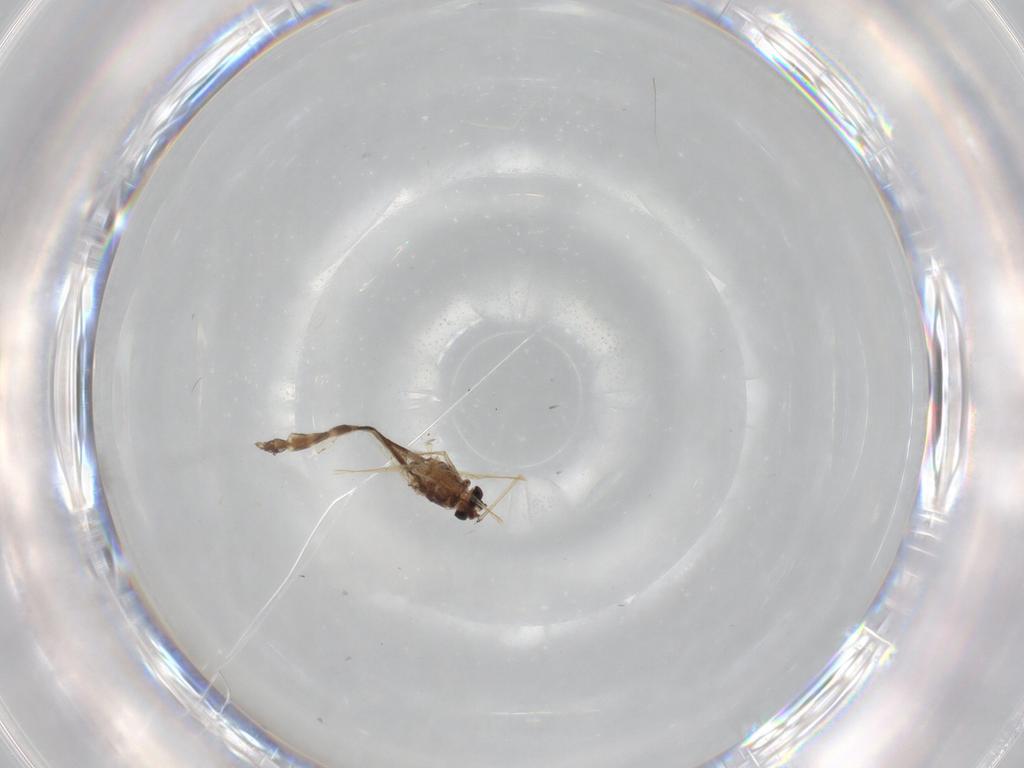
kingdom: Animalia
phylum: Arthropoda
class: Insecta
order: Diptera
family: Chironomidae
